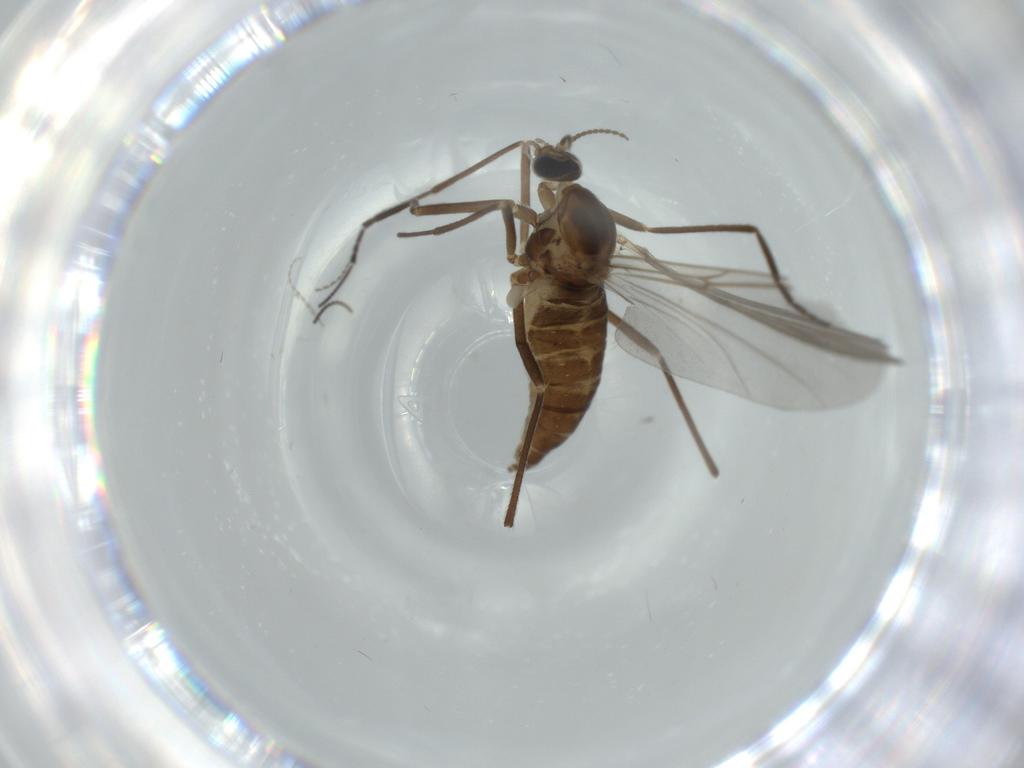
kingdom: Animalia
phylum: Arthropoda
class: Insecta
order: Diptera
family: Cecidomyiidae
